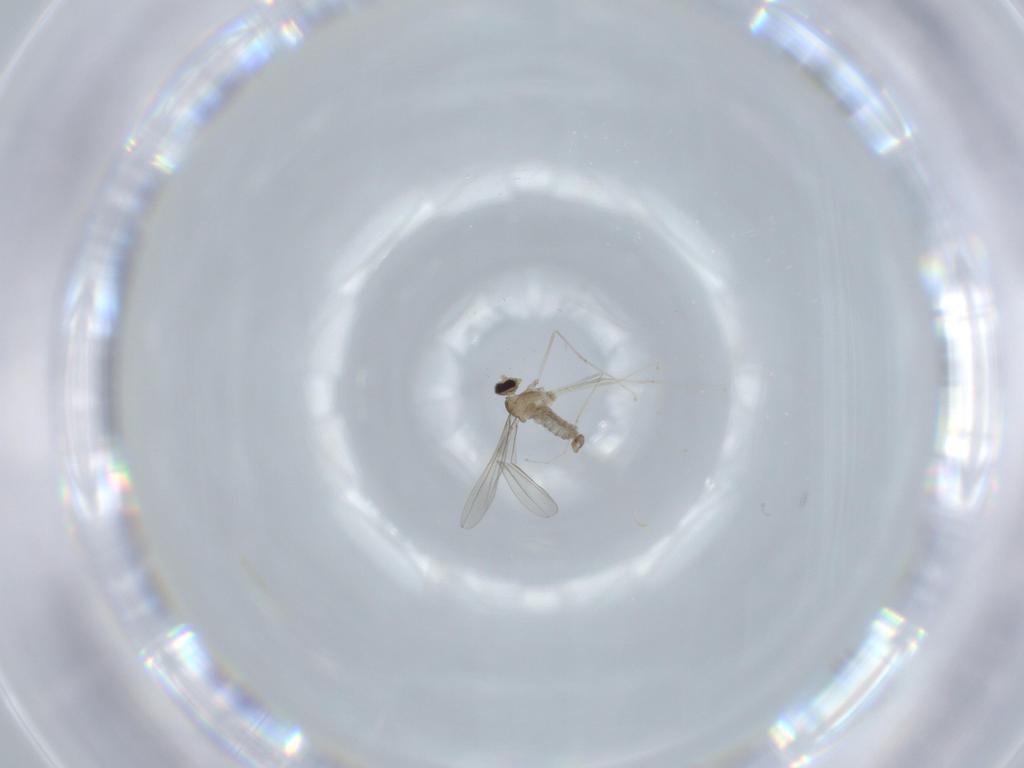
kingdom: Animalia
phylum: Arthropoda
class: Insecta
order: Diptera
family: Cecidomyiidae
